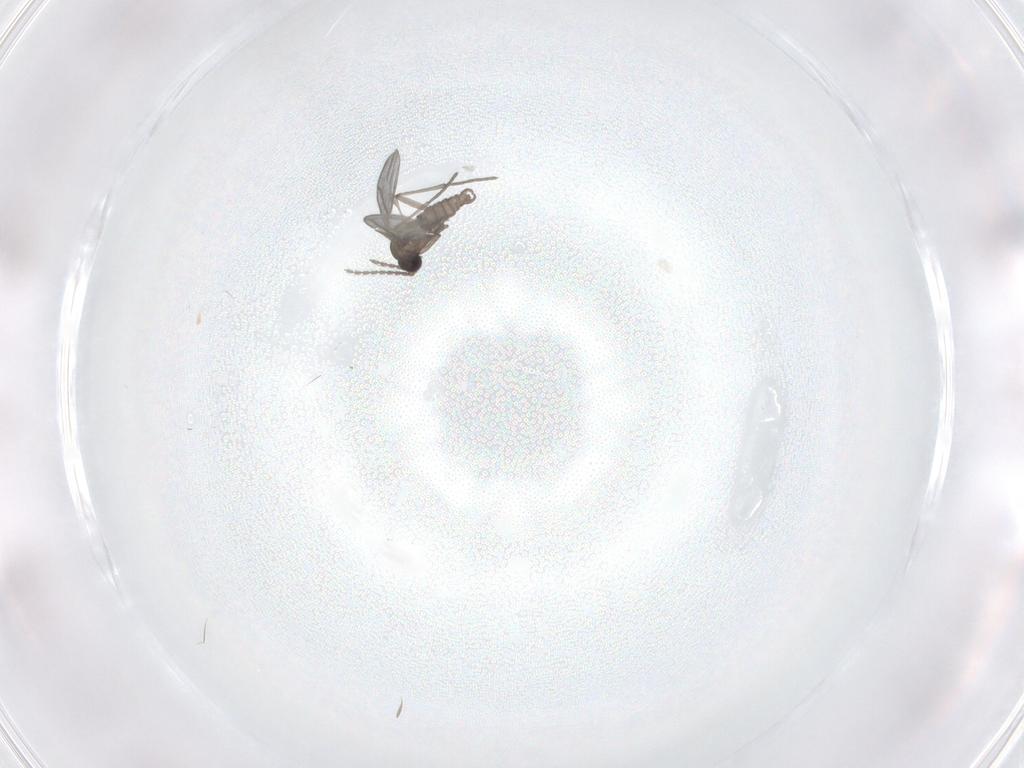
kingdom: Animalia
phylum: Arthropoda
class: Insecta
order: Diptera
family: Sciaridae
